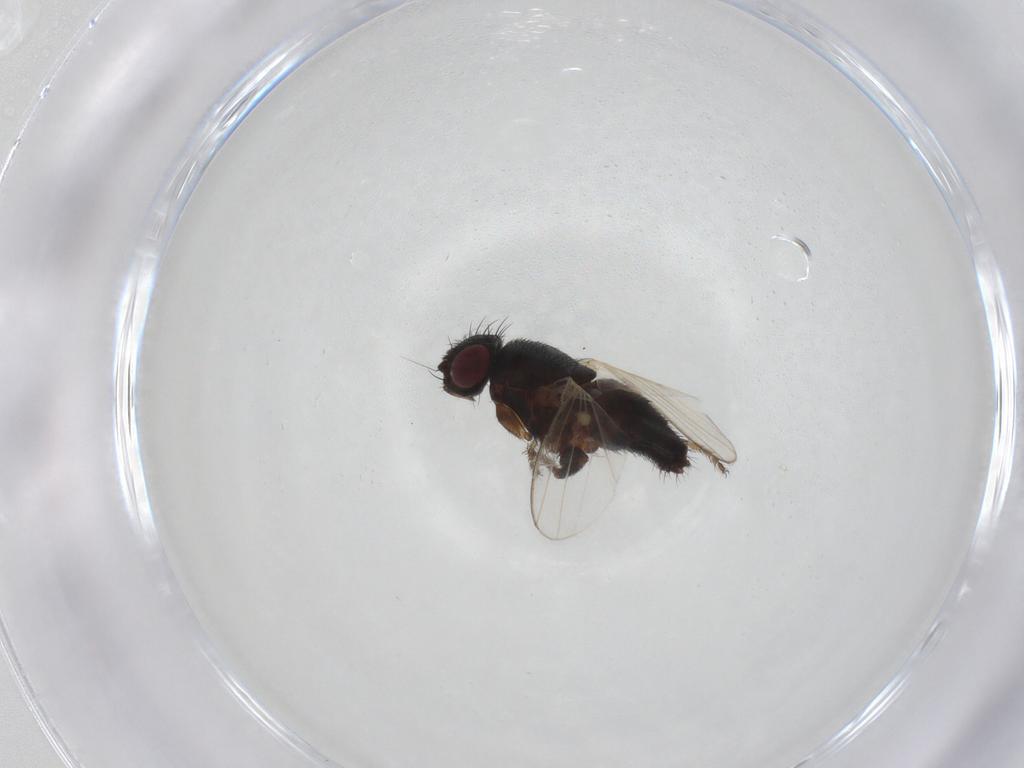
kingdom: Animalia
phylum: Arthropoda
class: Insecta
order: Diptera
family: Milichiidae
